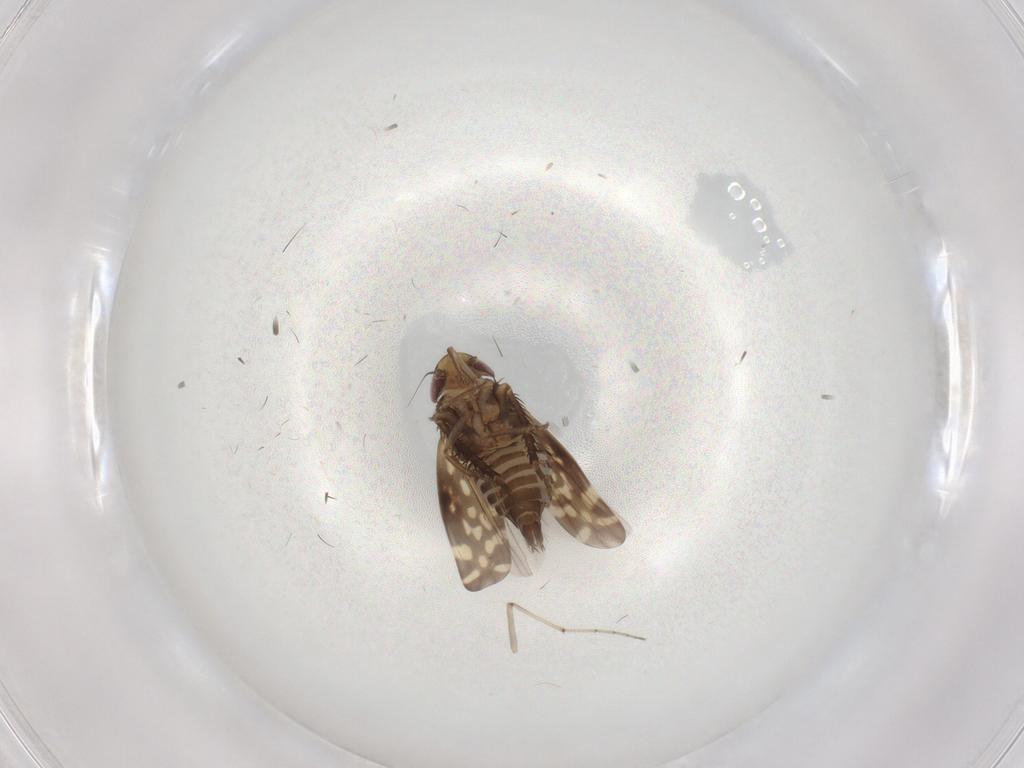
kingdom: Animalia
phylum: Arthropoda
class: Insecta
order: Hemiptera
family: Cicadellidae
